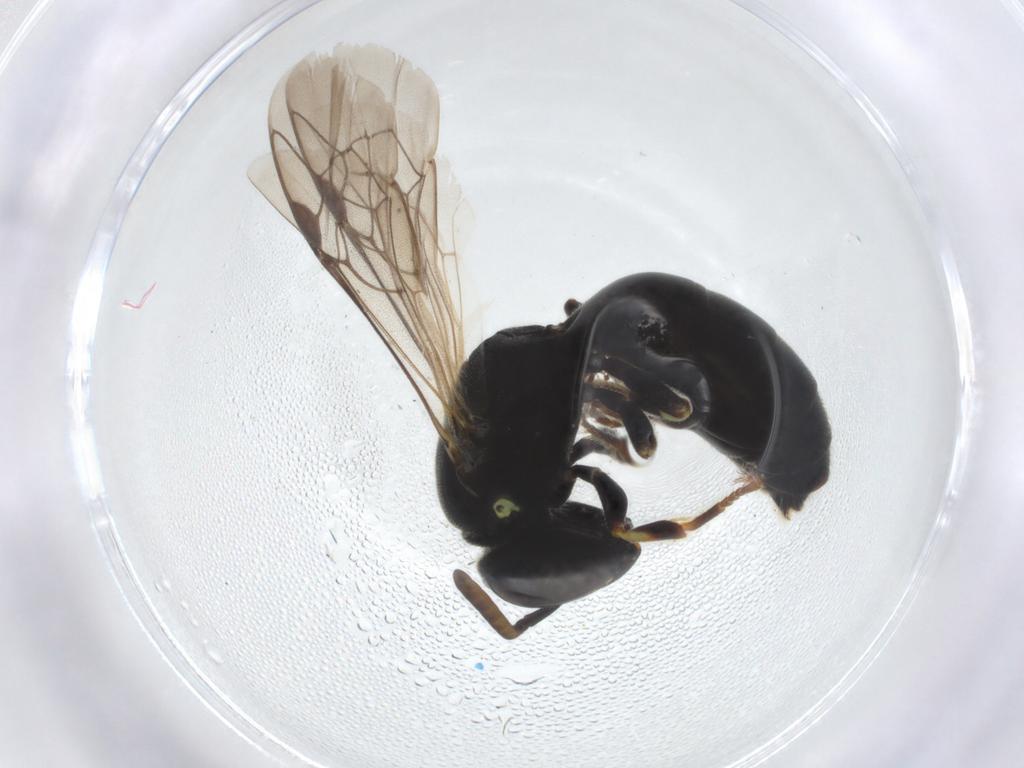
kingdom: Animalia
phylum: Arthropoda
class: Insecta
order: Hymenoptera
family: Colletidae
